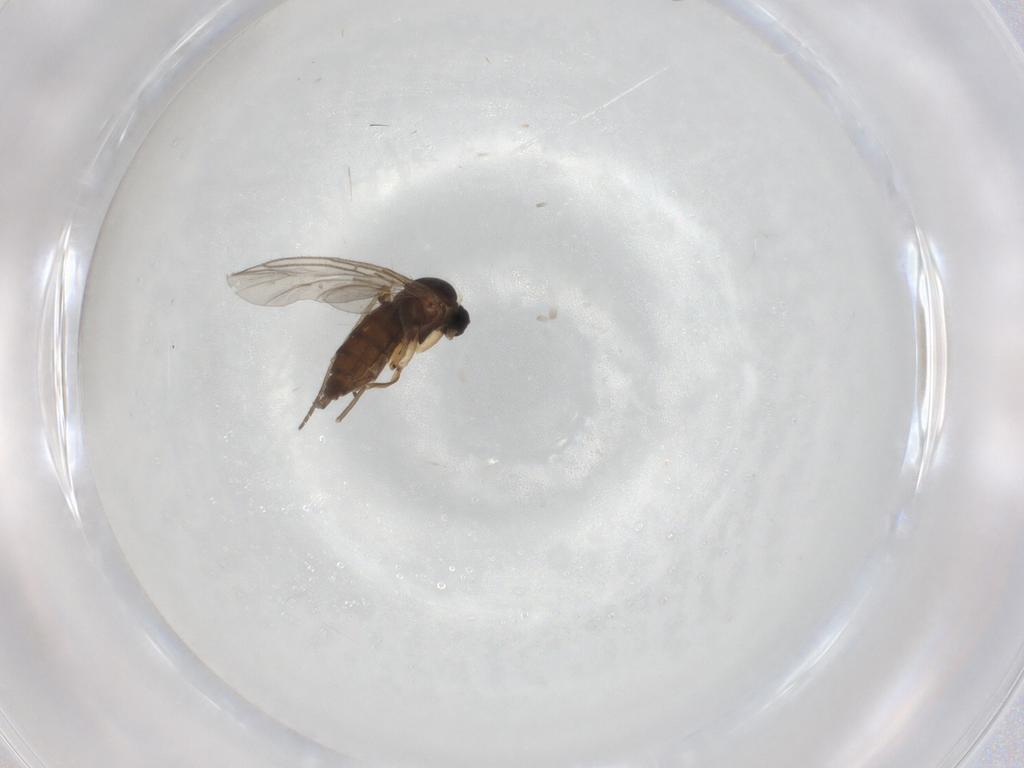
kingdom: Animalia
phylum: Arthropoda
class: Insecta
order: Diptera
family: Sciaridae
